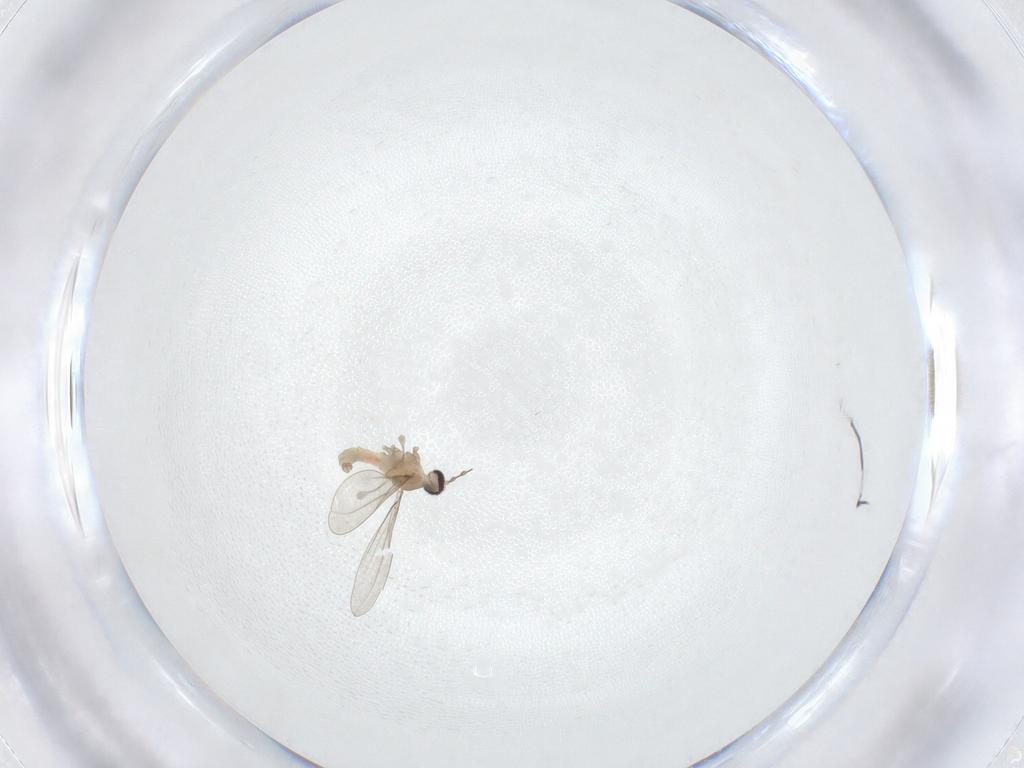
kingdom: Animalia
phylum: Arthropoda
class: Insecta
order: Diptera
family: Cecidomyiidae
